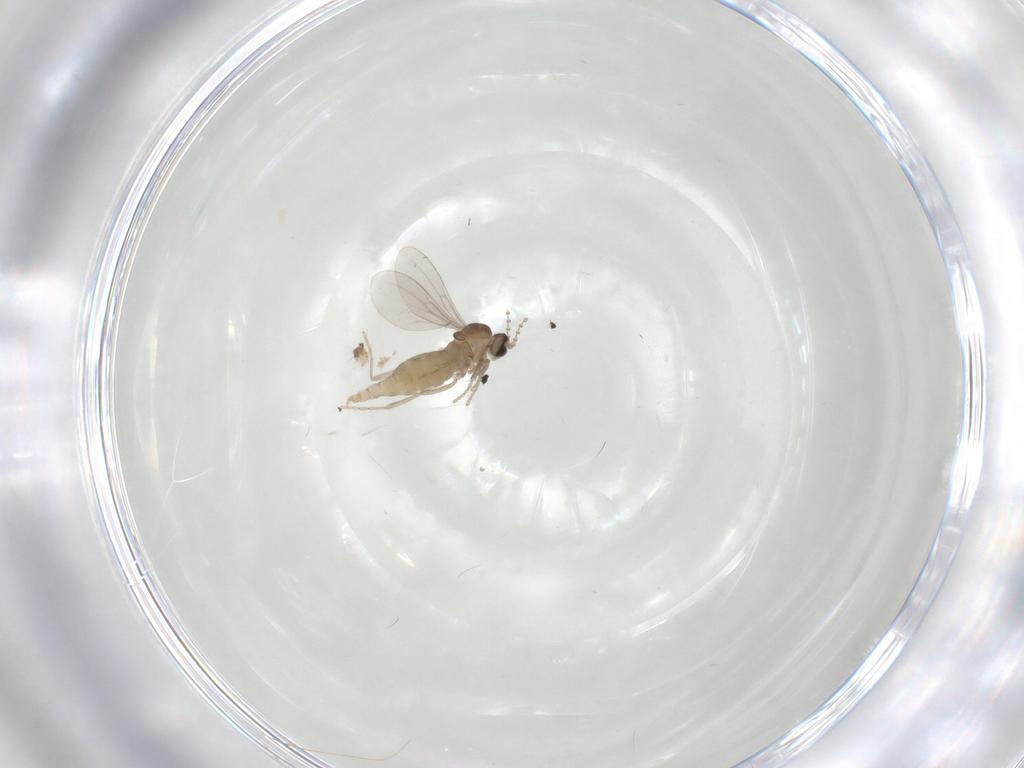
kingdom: Animalia
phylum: Arthropoda
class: Insecta
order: Diptera
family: Cecidomyiidae
